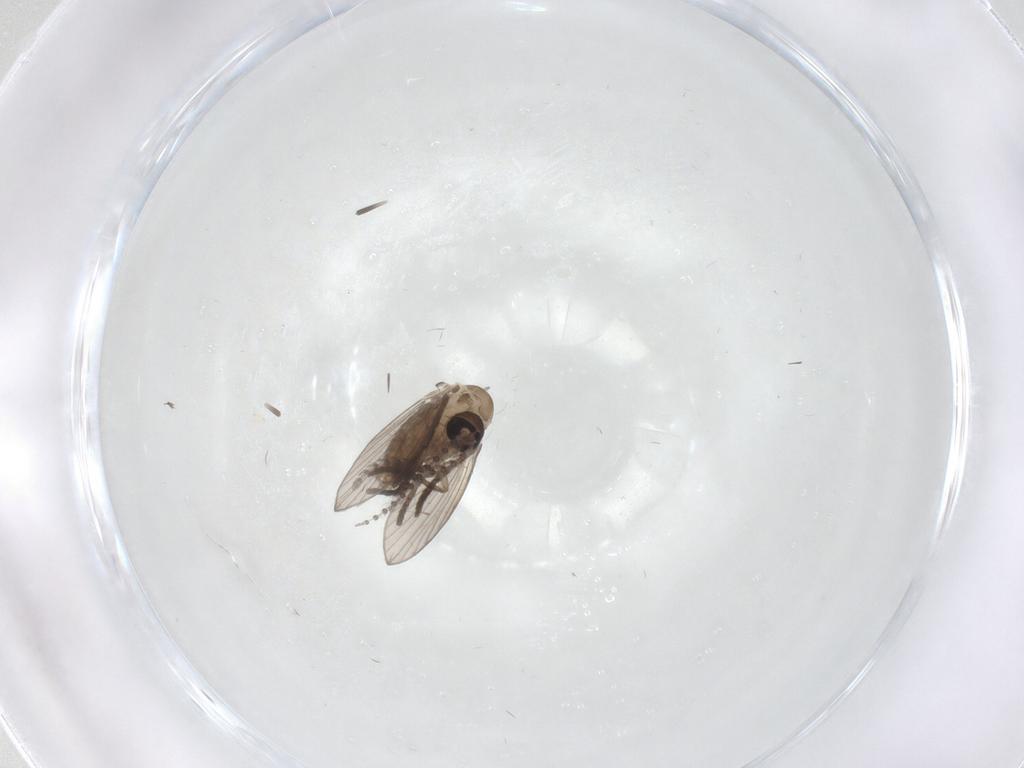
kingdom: Animalia
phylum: Arthropoda
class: Insecta
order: Diptera
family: Psychodidae
